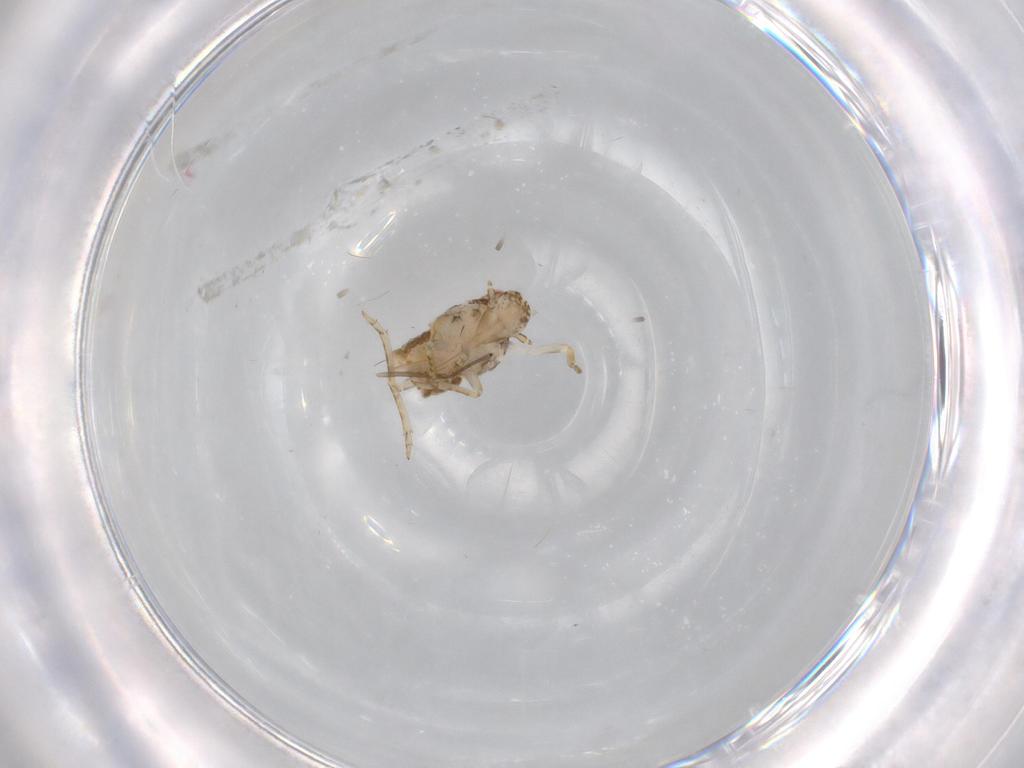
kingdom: Animalia
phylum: Arthropoda
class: Insecta
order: Hemiptera
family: Flatidae
